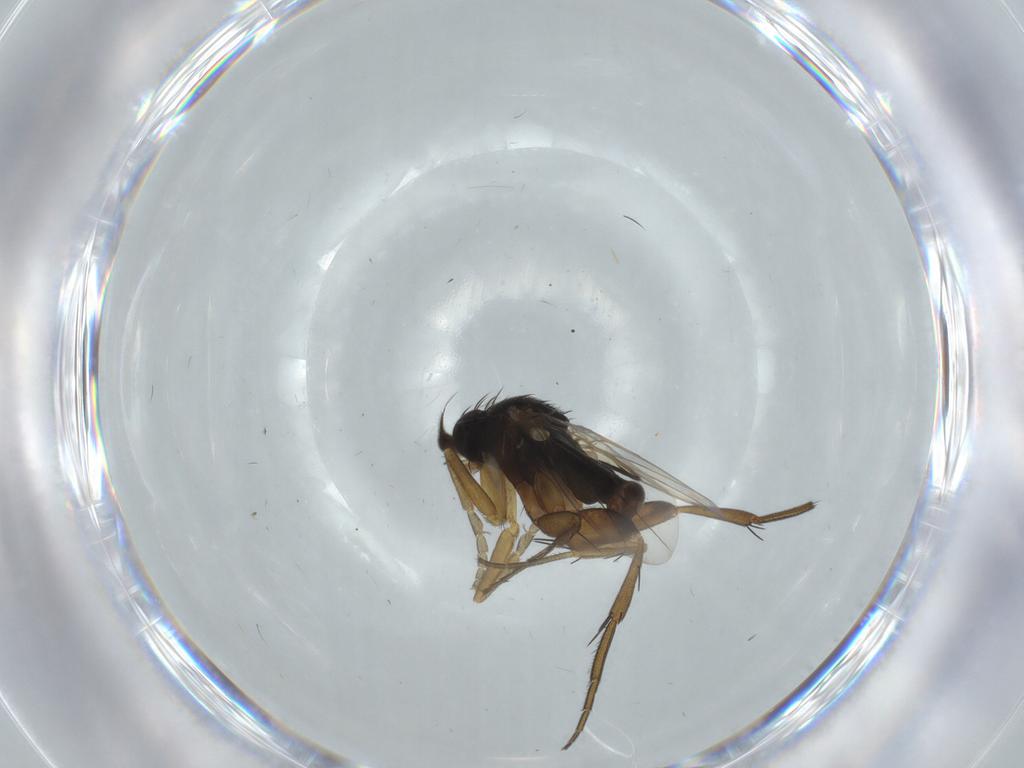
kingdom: Animalia
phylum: Arthropoda
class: Insecta
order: Diptera
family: Phoridae
